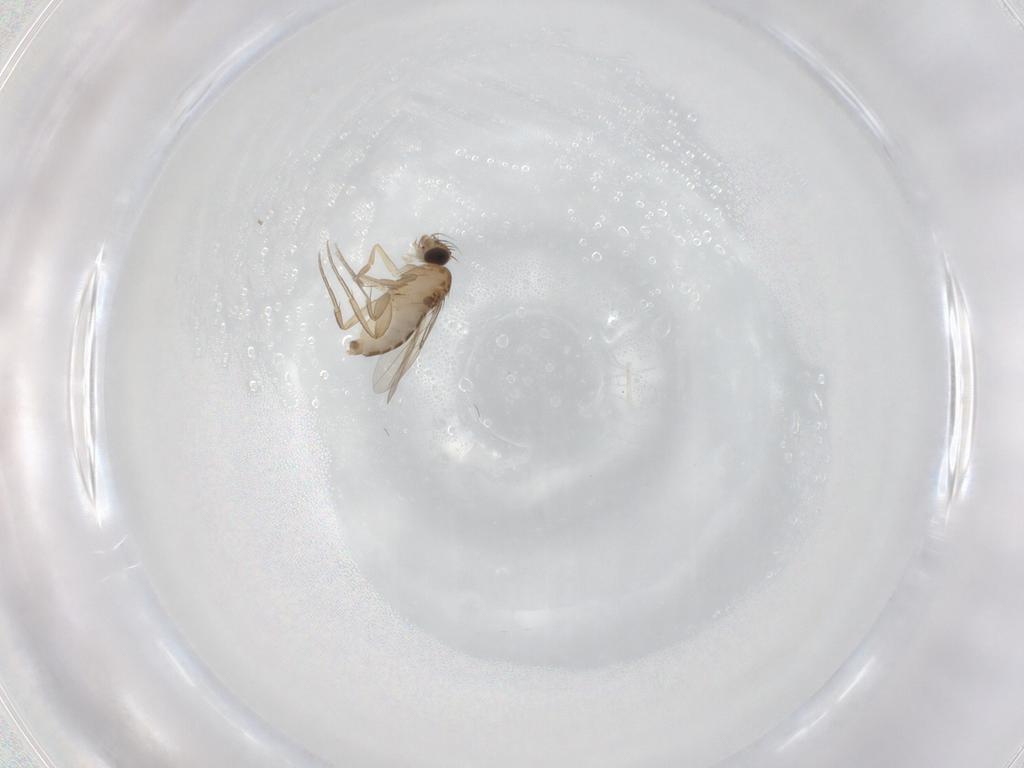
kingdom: Animalia
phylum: Arthropoda
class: Insecta
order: Diptera
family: Phoridae
